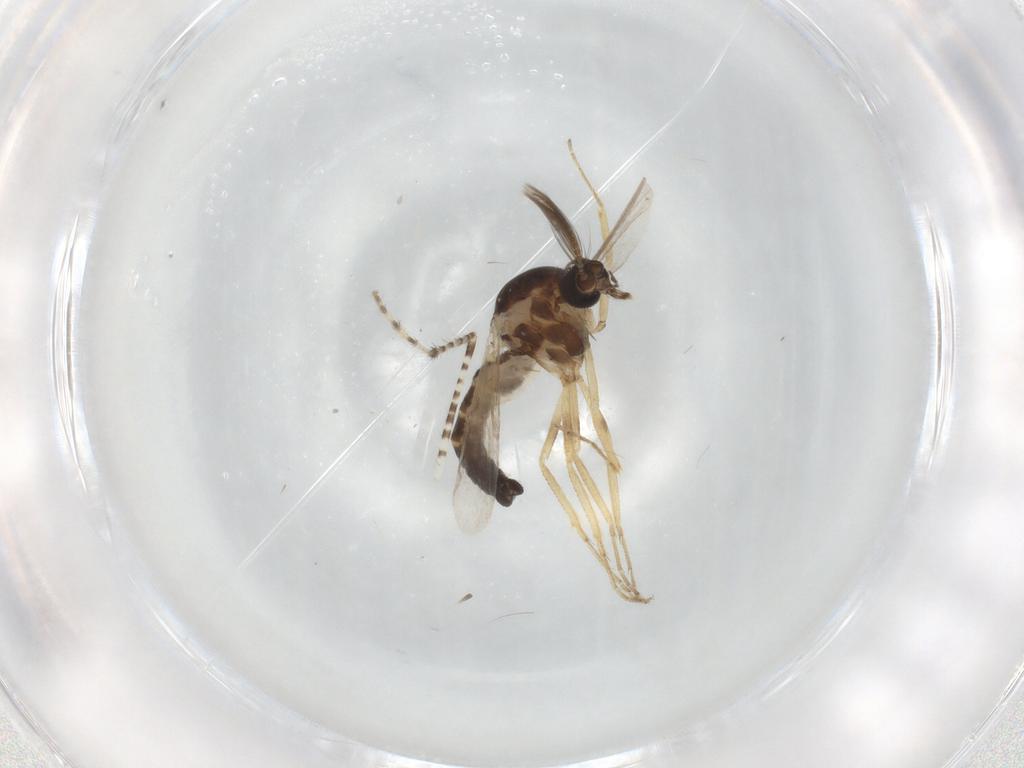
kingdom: Animalia
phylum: Arthropoda
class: Insecta
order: Diptera
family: Ceratopogonidae
